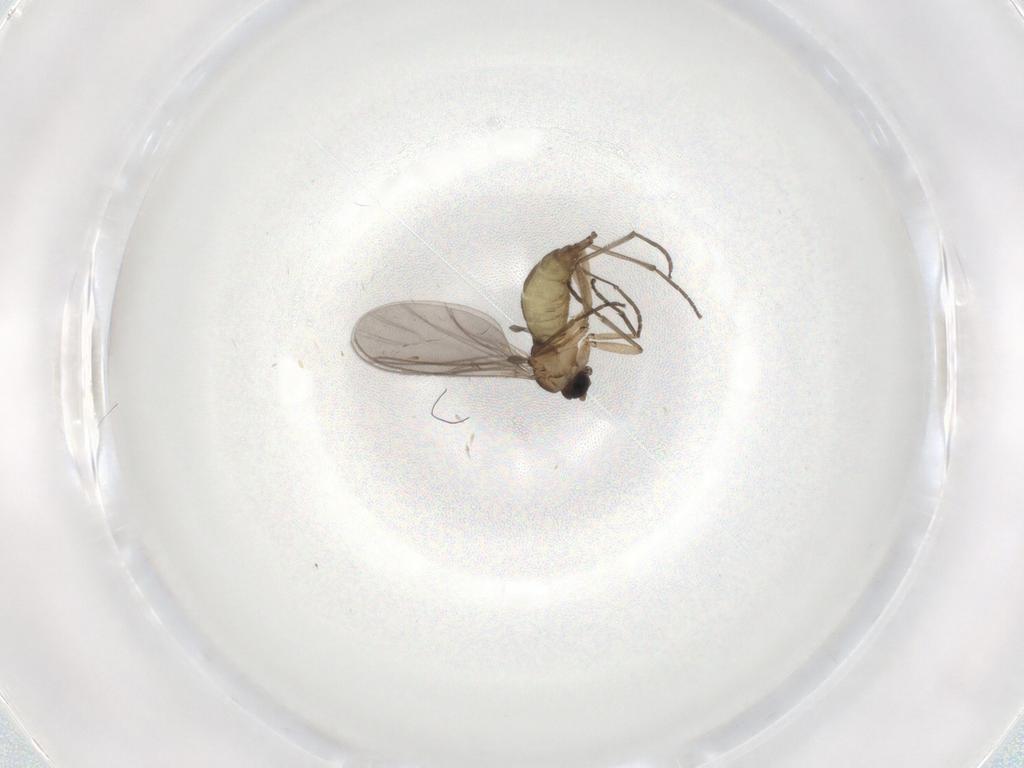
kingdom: Animalia
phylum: Arthropoda
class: Insecta
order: Diptera
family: Sciaridae
